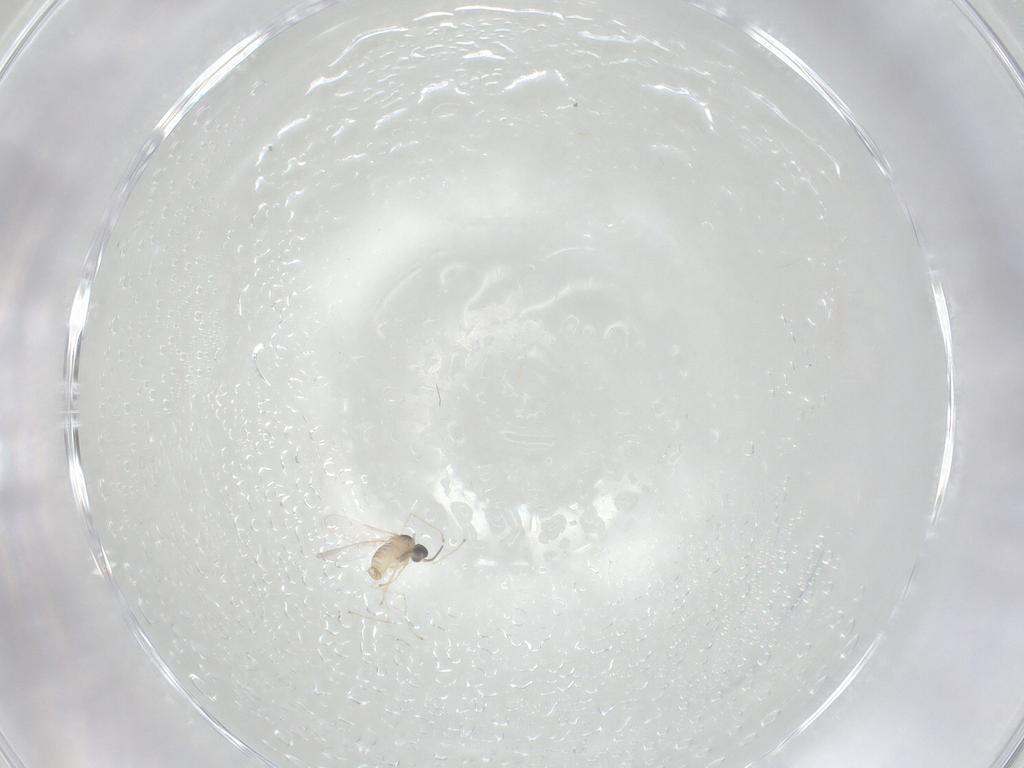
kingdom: Animalia
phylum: Arthropoda
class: Insecta
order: Diptera
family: Cecidomyiidae
